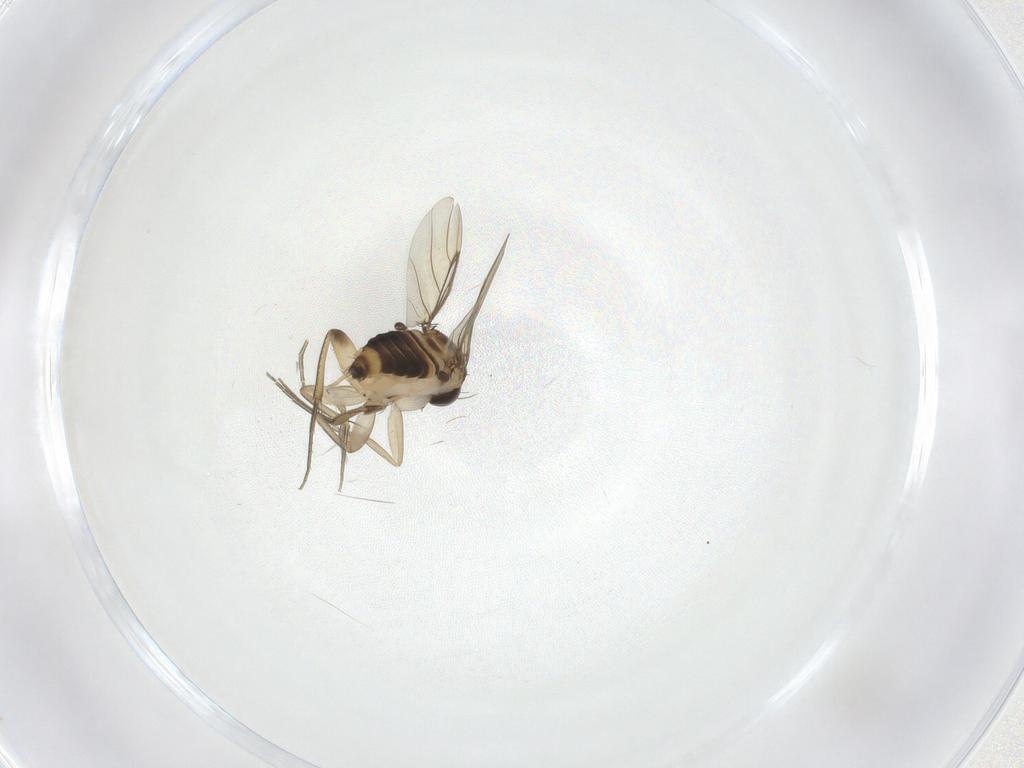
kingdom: Animalia
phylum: Arthropoda
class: Insecta
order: Diptera
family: Phoridae
